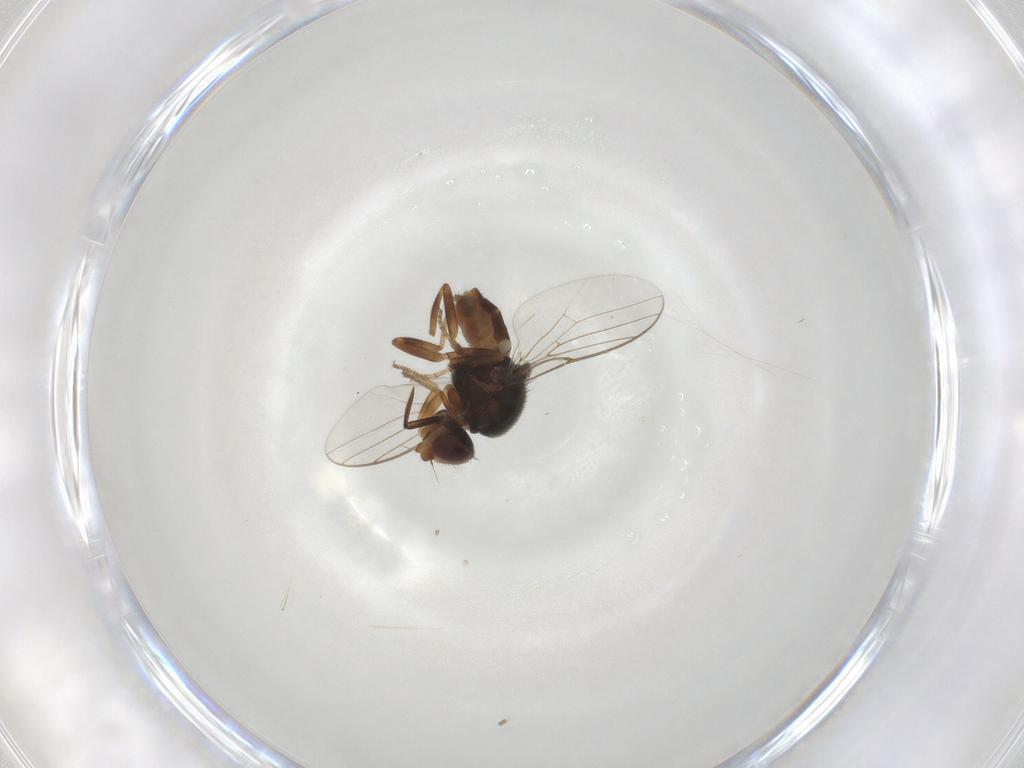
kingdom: Animalia
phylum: Arthropoda
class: Insecta
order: Diptera
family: Chloropidae
